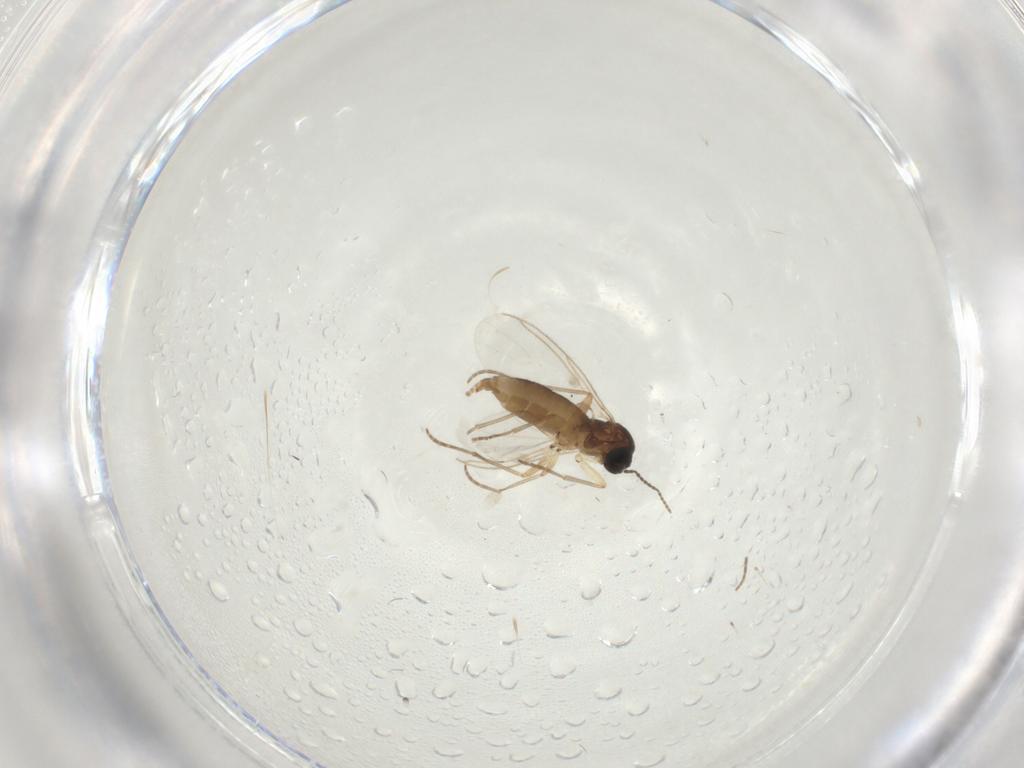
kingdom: Animalia
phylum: Arthropoda
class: Insecta
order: Diptera
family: Sciaridae
